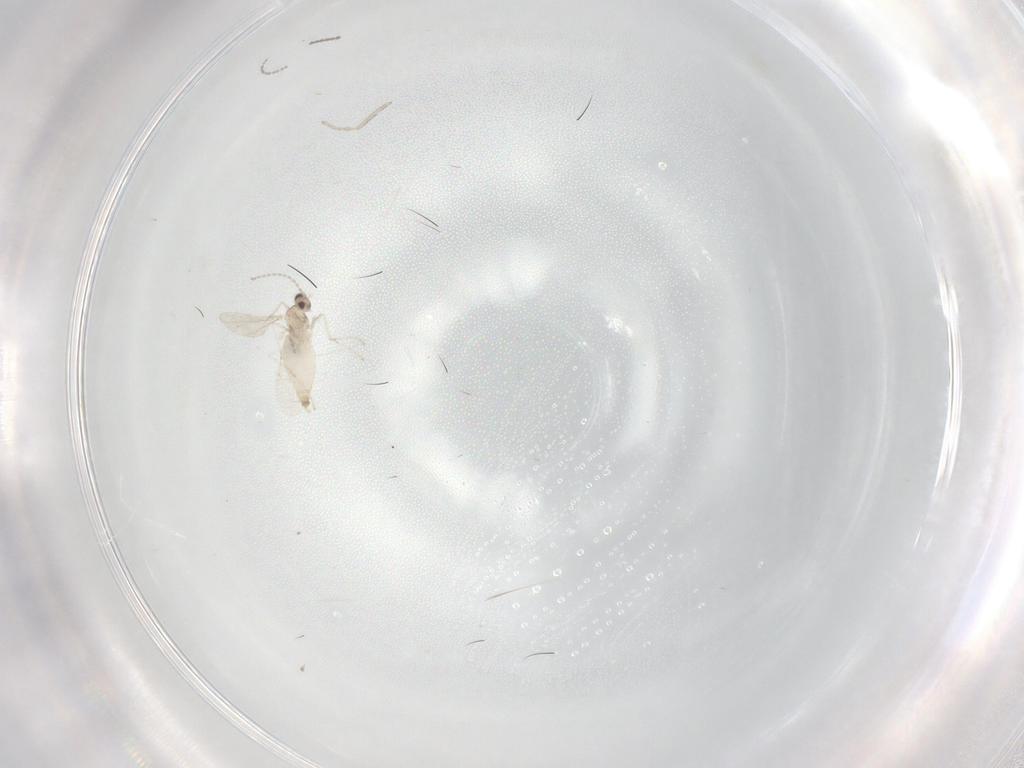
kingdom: Animalia
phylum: Arthropoda
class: Insecta
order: Diptera
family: Cecidomyiidae
